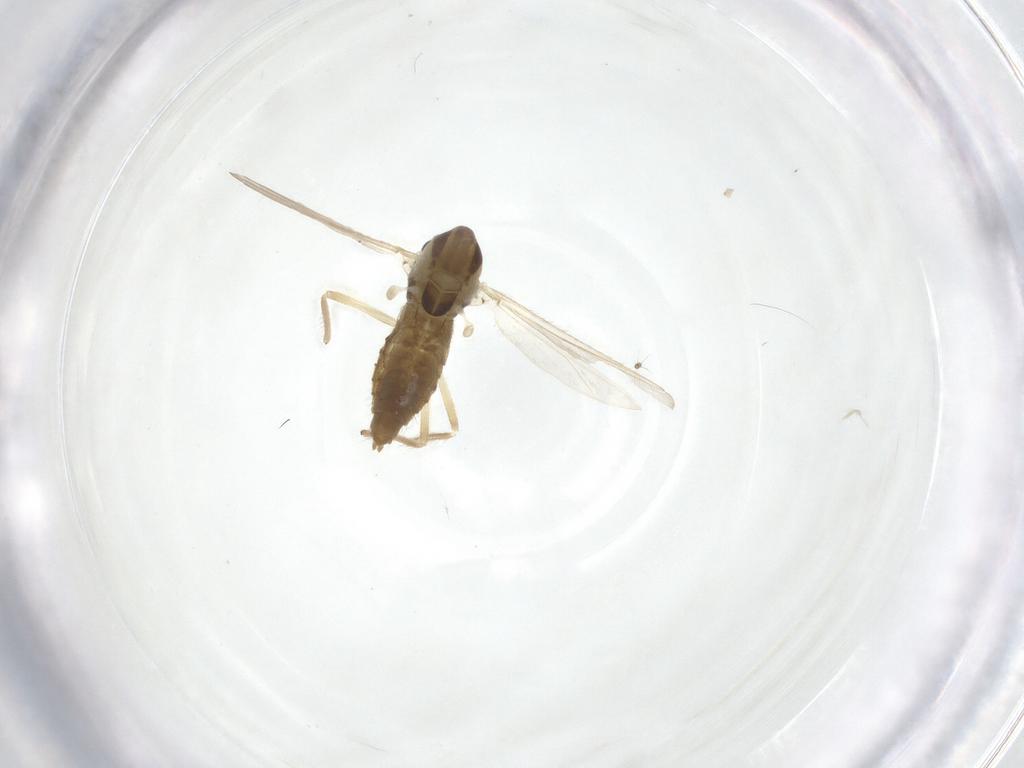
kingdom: Animalia
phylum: Arthropoda
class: Insecta
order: Diptera
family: Chironomidae
